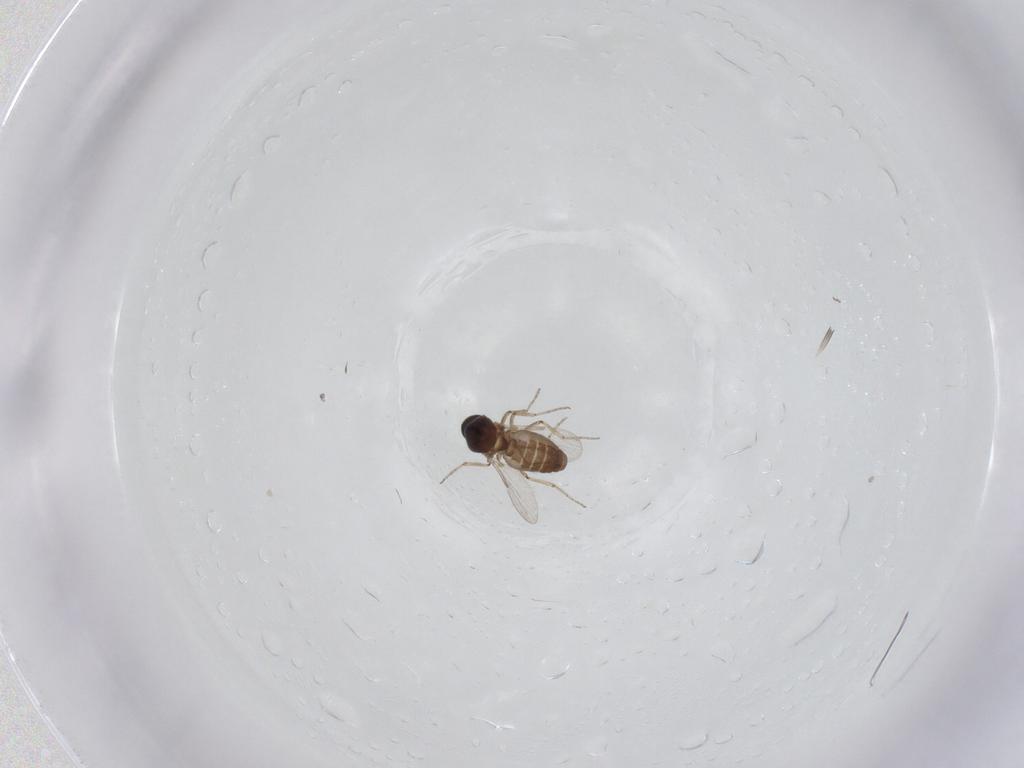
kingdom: Animalia
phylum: Arthropoda
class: Insecta
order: Diptera
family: Ceratopogonidae
